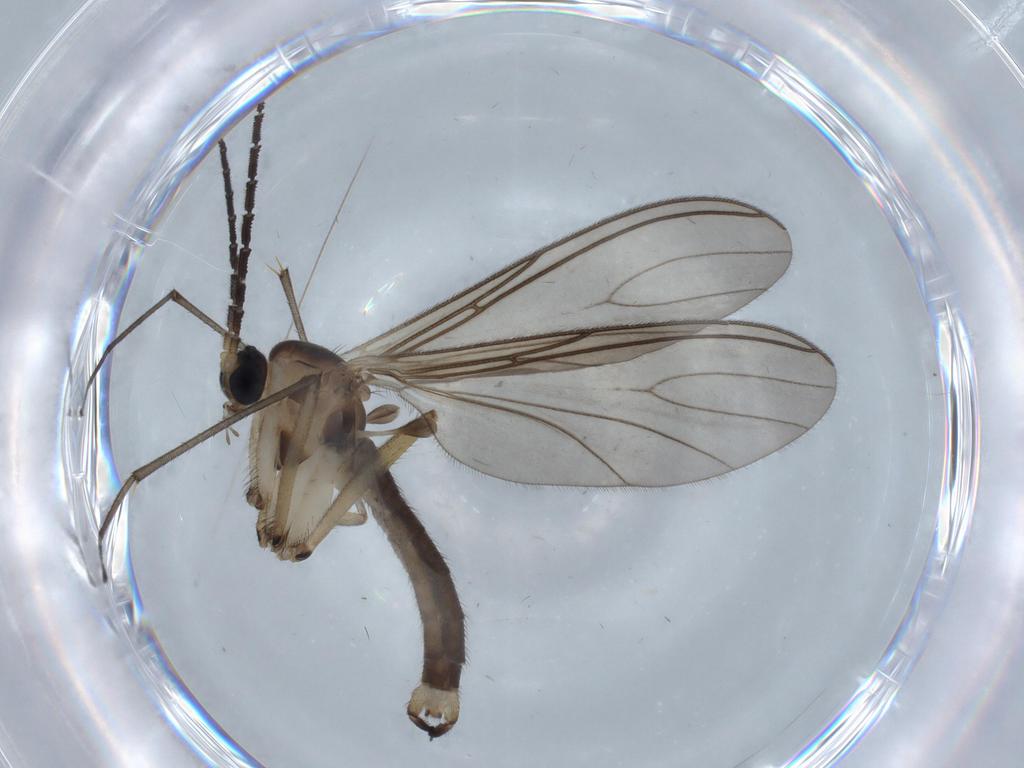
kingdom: Animalia
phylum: Arthropoda
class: Insecta
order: Diptera
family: Sciaridae
